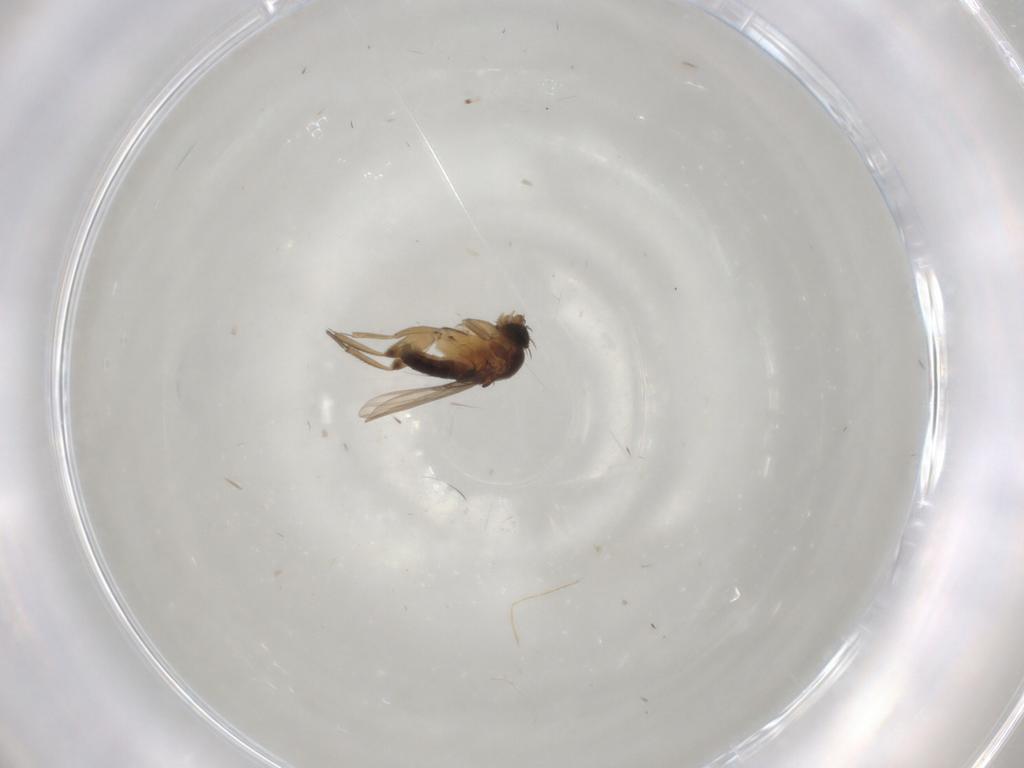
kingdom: Animalia
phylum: Arthropoda
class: Insecta
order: Diptera
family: Phoridae
